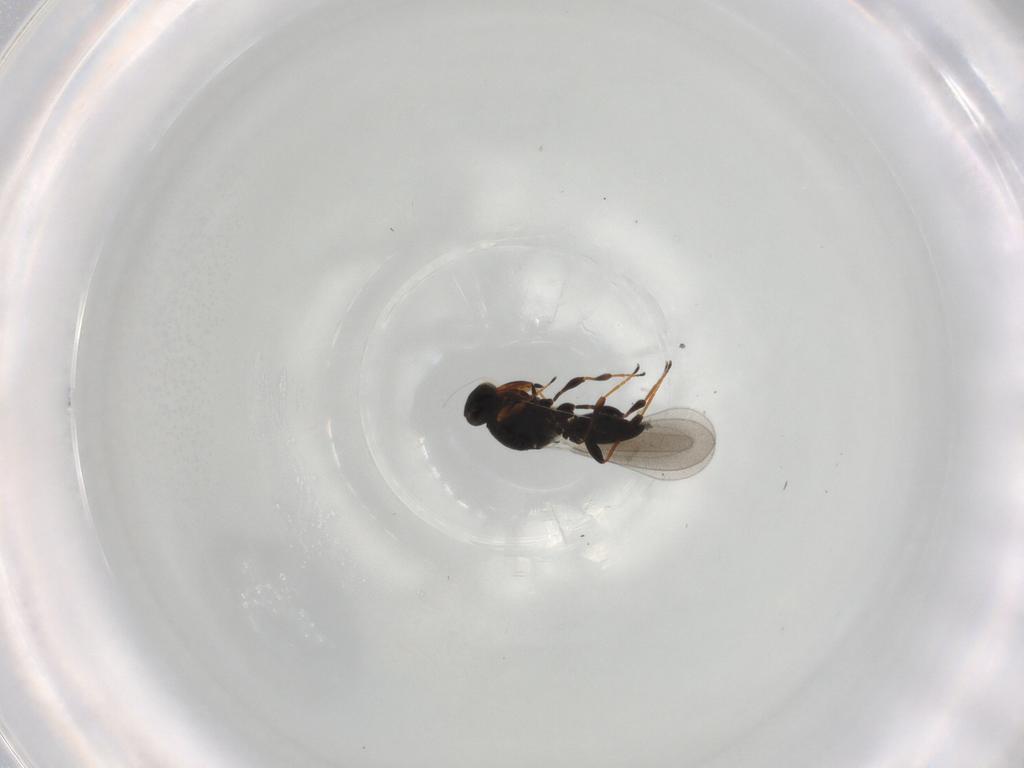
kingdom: Animalia
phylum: Arthropoda
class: Insecta
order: Hymenoptera
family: Platygastridae
